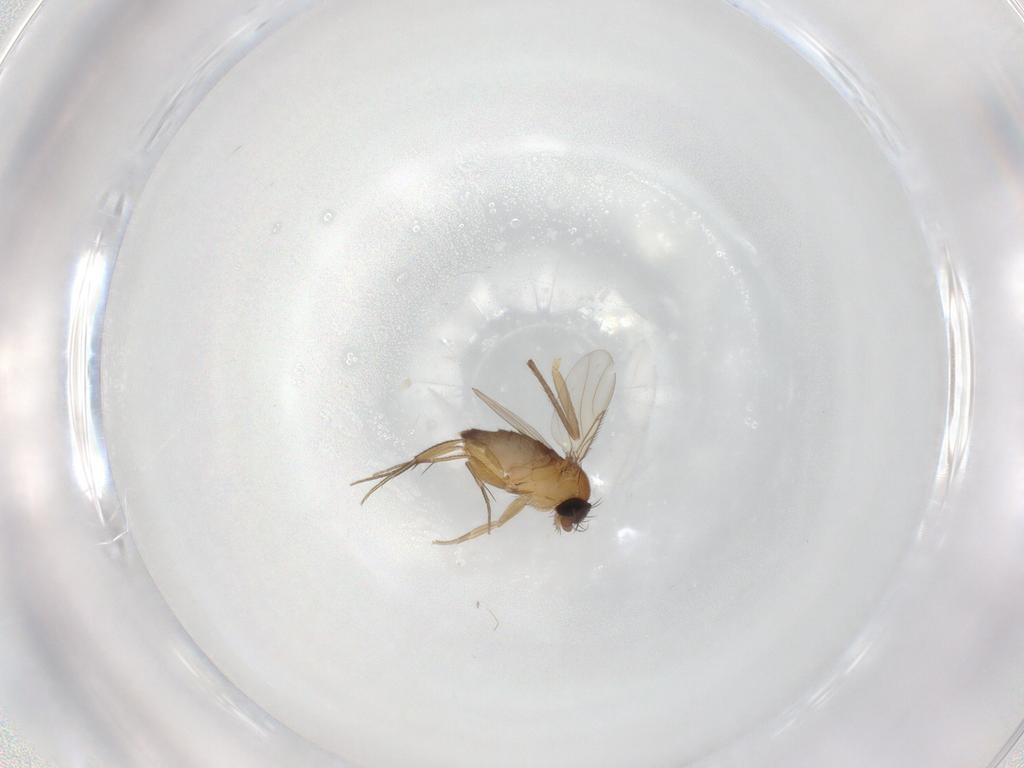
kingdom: Animalia
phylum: Arthropoda
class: Insecta
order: Diptera
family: Phoridae
